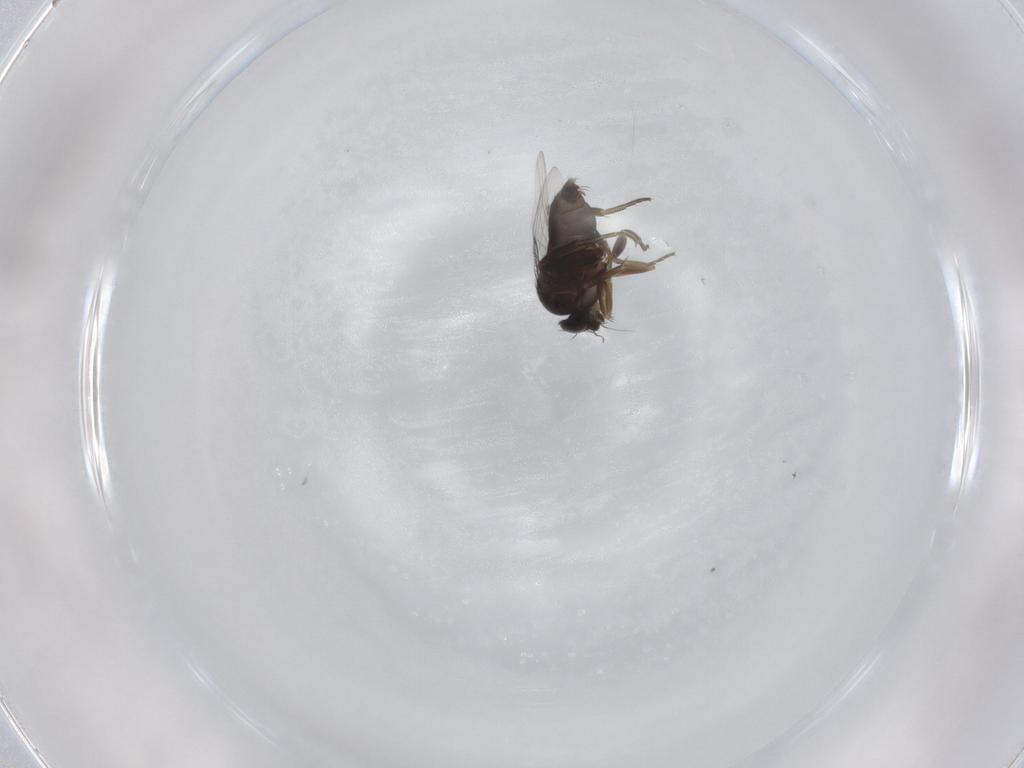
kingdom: Animalia
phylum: Arthropoda
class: Insecta
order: Diptera
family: Phoridae
